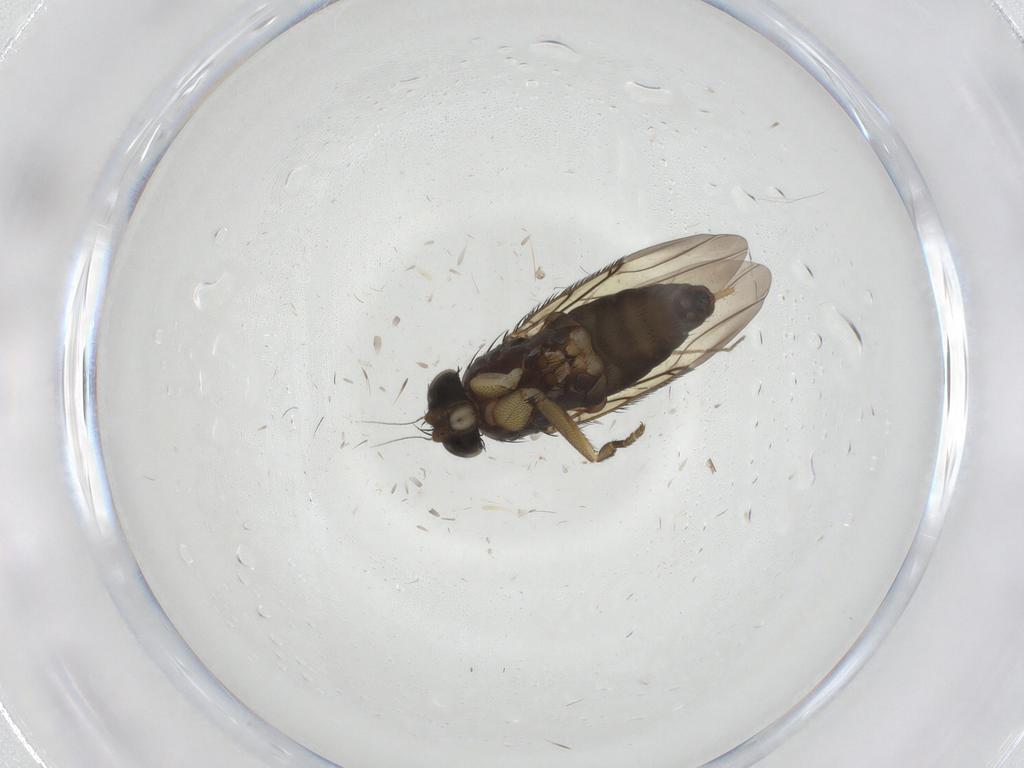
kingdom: Animalia
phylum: Arthropoda
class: Insecta
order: Diptera
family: Phoridae
